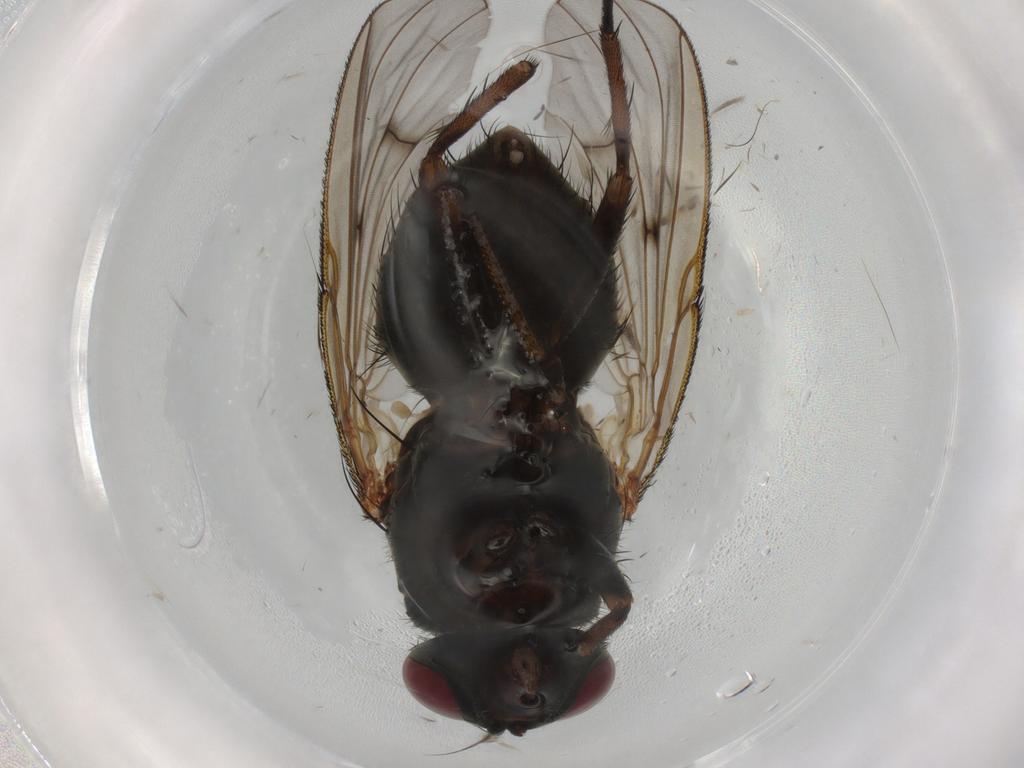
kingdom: Animalia
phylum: Arthropoda
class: Insecta
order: Diptera
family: Muscidae
